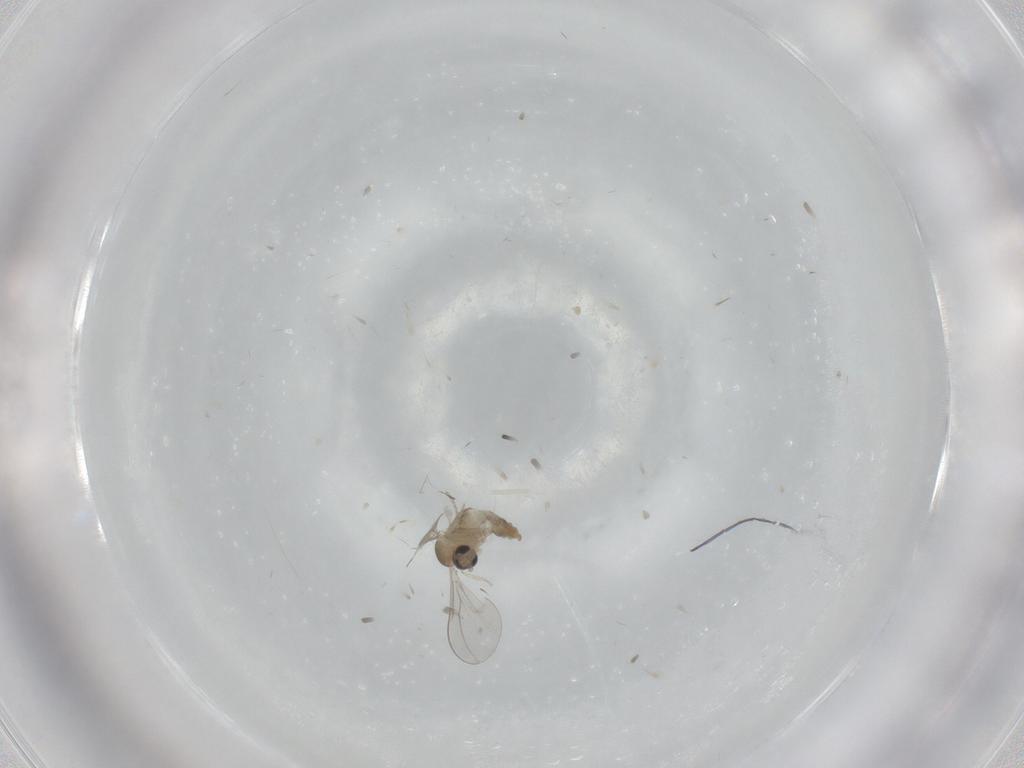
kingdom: Animalia
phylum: Arthropoda
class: Insecta
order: Diptera
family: Cecidomyiidae
